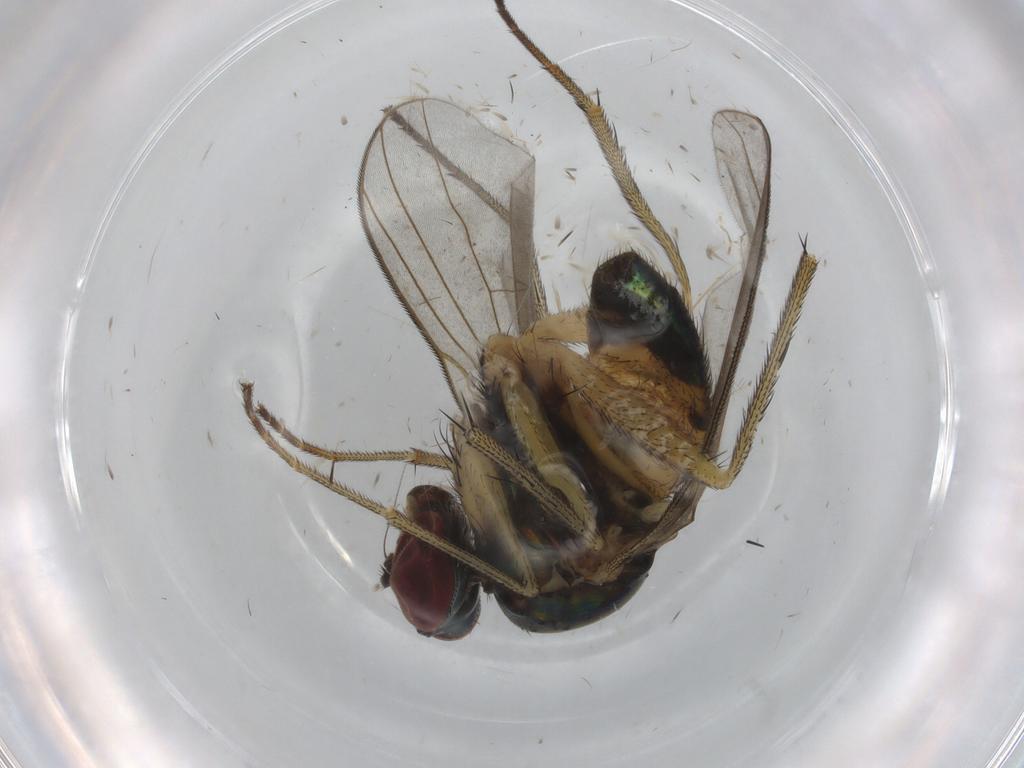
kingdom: Animalia
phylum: Arthropoda
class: Insecta
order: Diptera
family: Dolichopodidae
